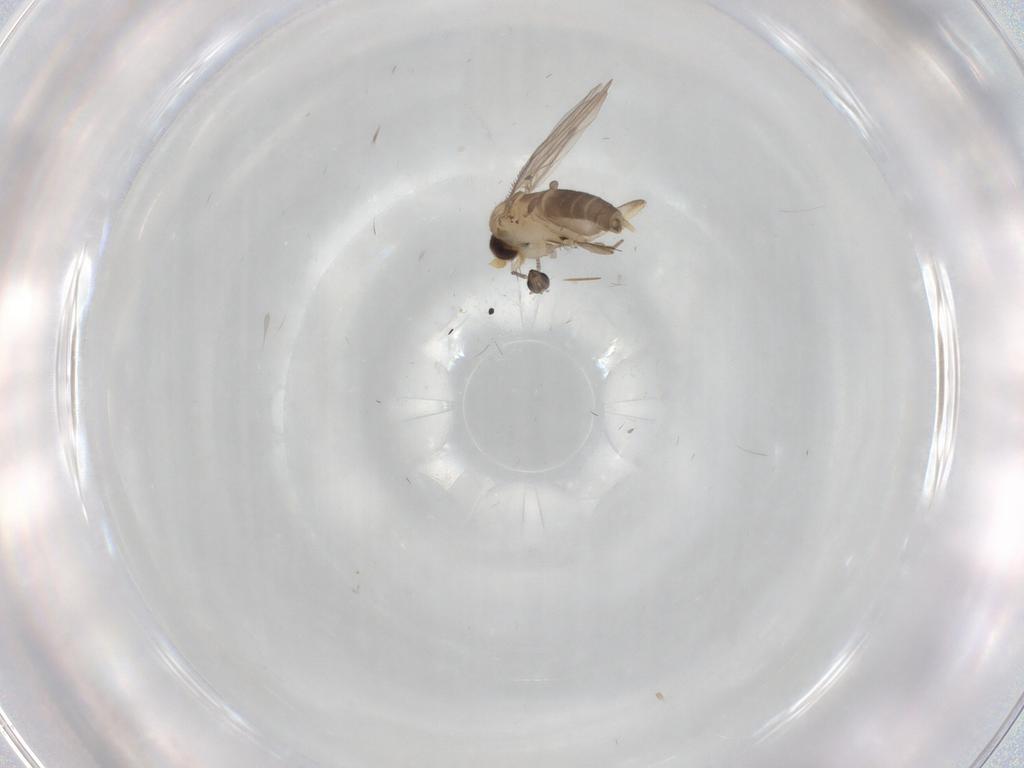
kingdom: Animalia
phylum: Arthropoda
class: Insecta
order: Diptera
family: Phoridae
